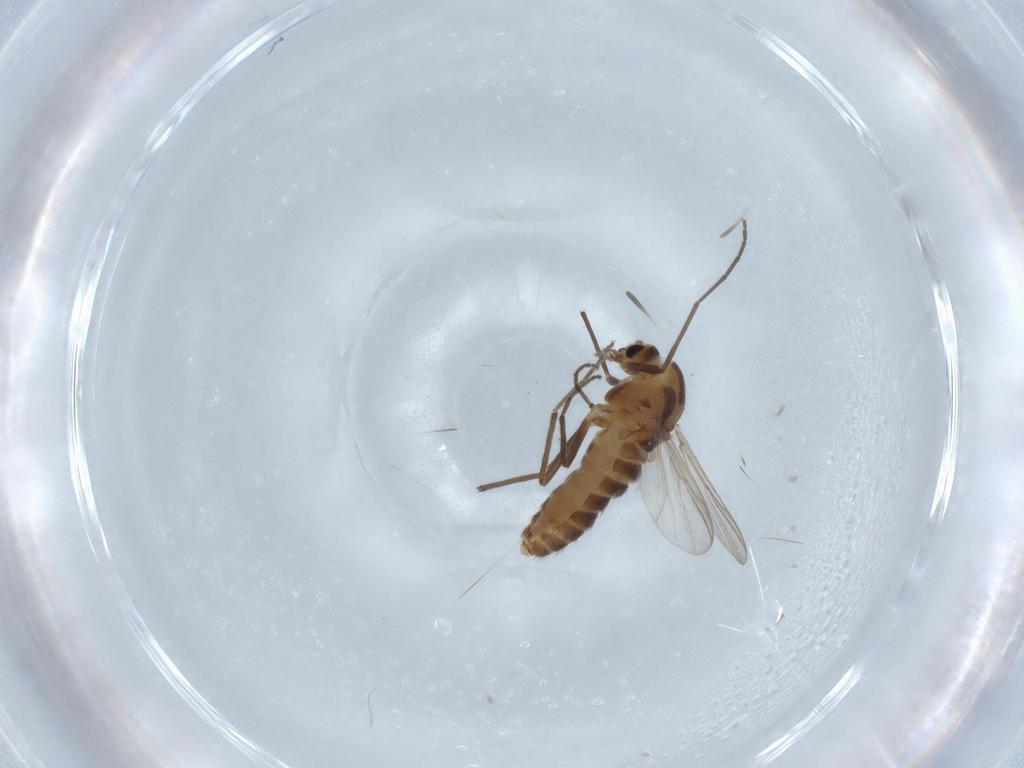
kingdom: Animalia
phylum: Arthropoda
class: Insecta
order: Diptera
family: Chironomidae
